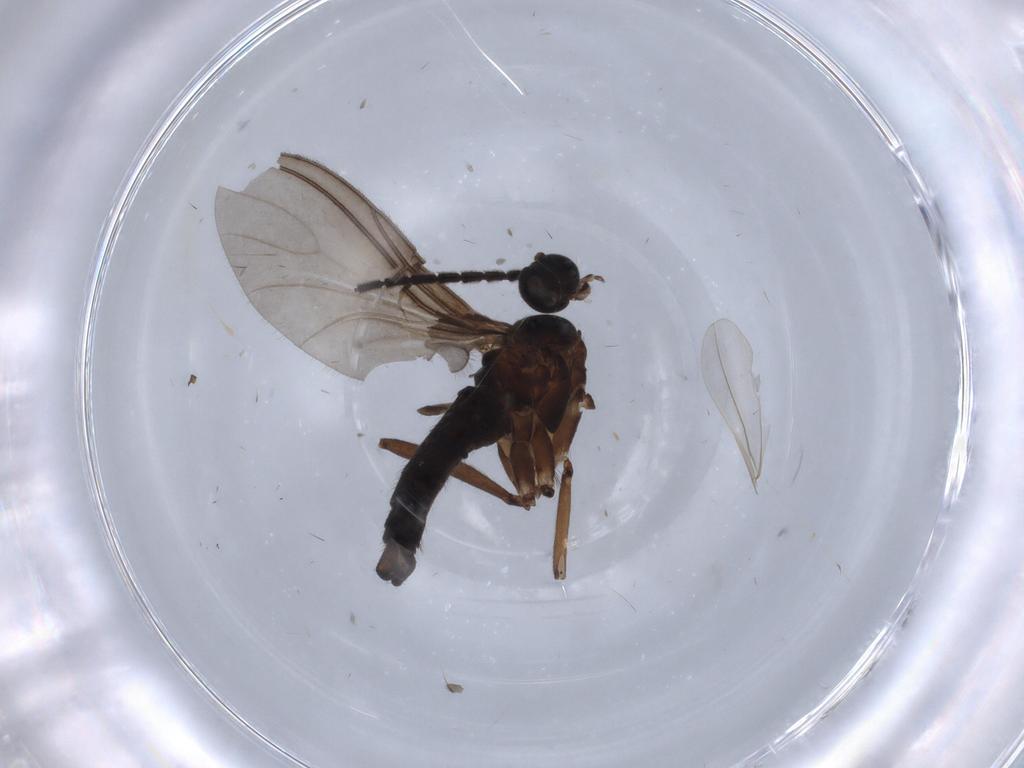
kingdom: Animalia
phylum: Arthropoda
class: Insecta
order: Diptera
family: Sciaridae
